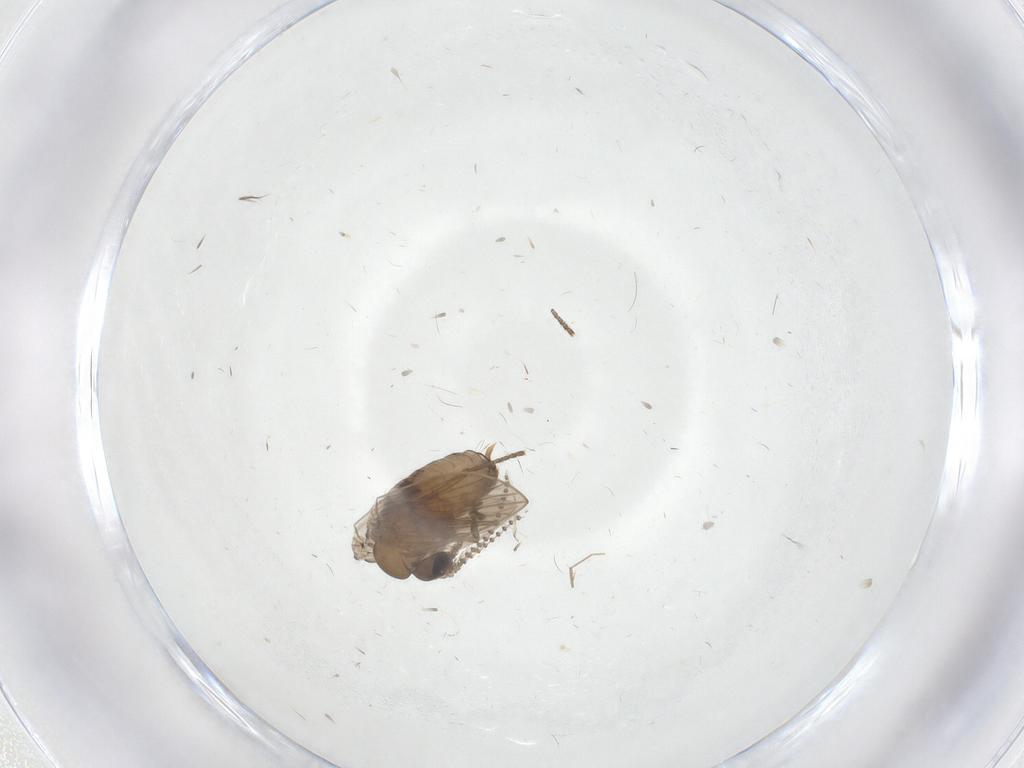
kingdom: Animalia
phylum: Arthropoda
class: Insecta
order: Diptera
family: Psychodidae
